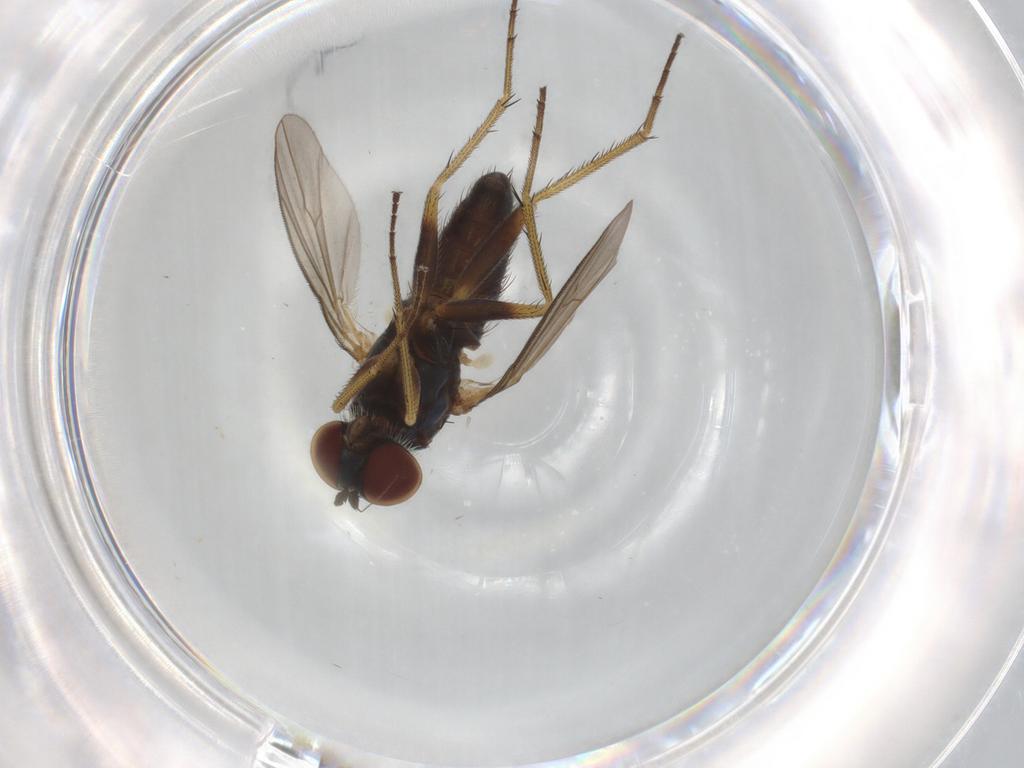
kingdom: Animalia
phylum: Arthropoda
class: Insecta
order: Diptera
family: Dolichopodidae
